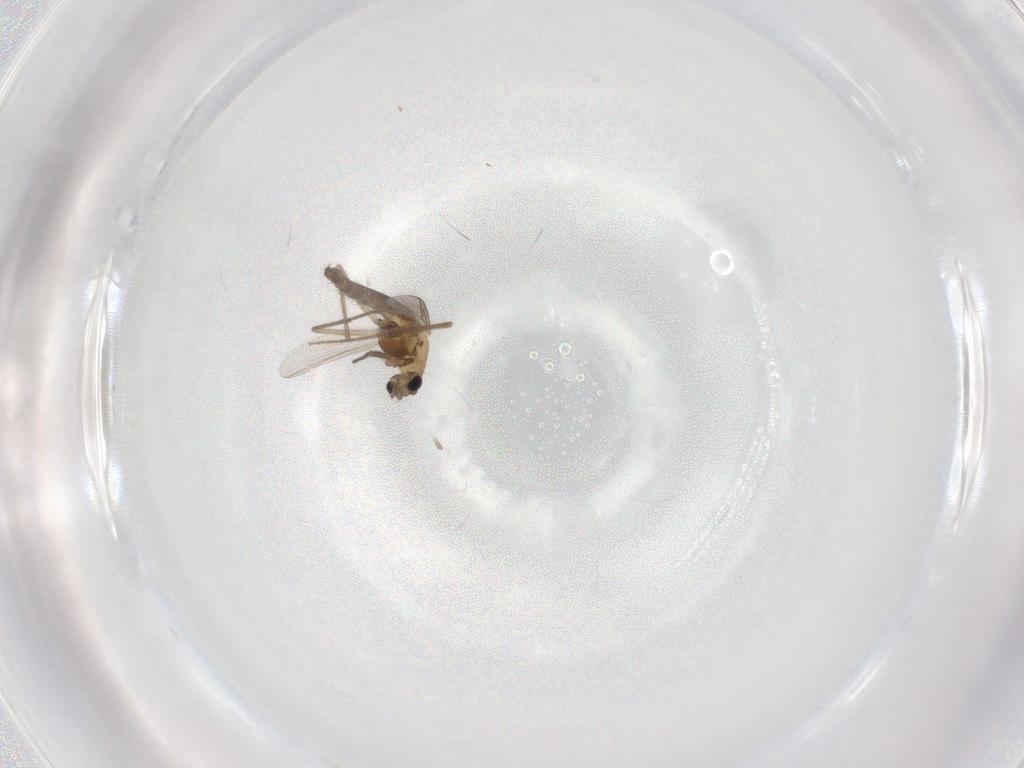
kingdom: Animalia
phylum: Arthropoda
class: Insecta
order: Diptera
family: Chironomidae
